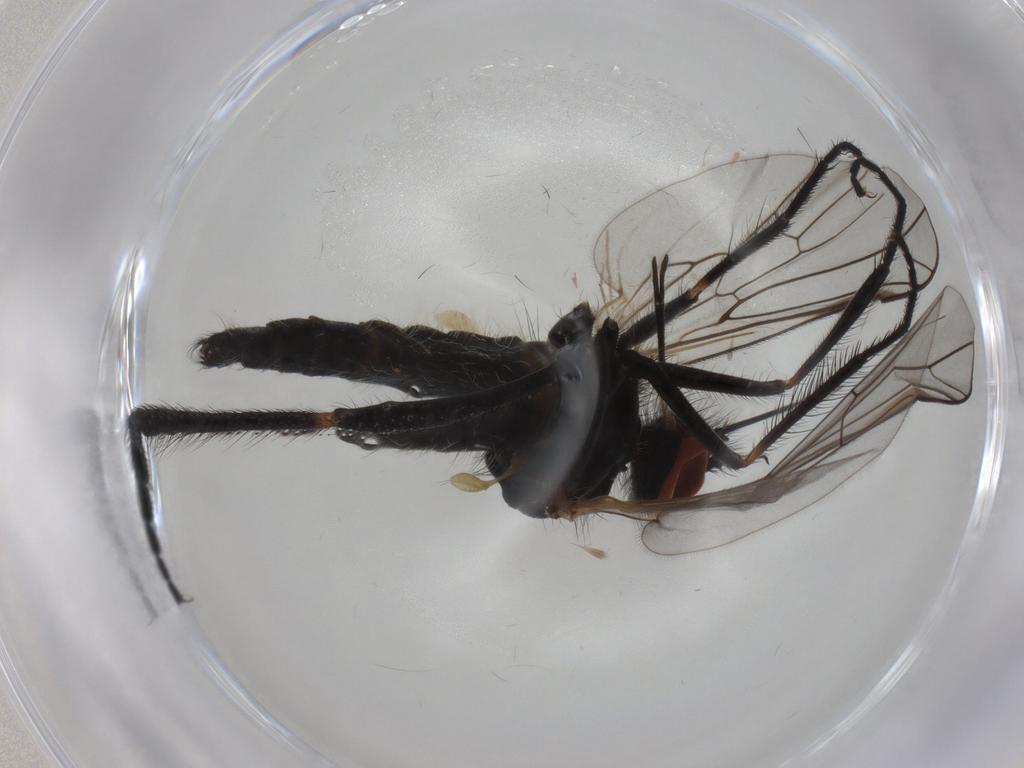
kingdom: Animalia
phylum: Arthropoda
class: Insecta
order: Diptera
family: Empididae
